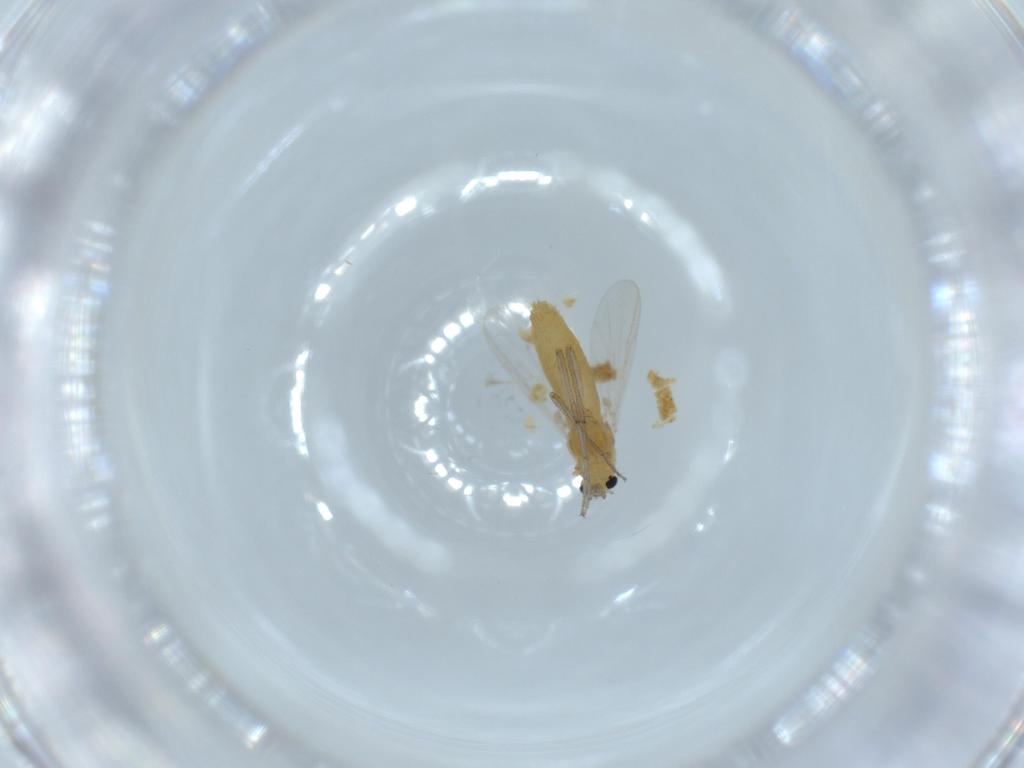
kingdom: Animalia
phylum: Arthropoda
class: Insecta
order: Diptera
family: Chironomidae
